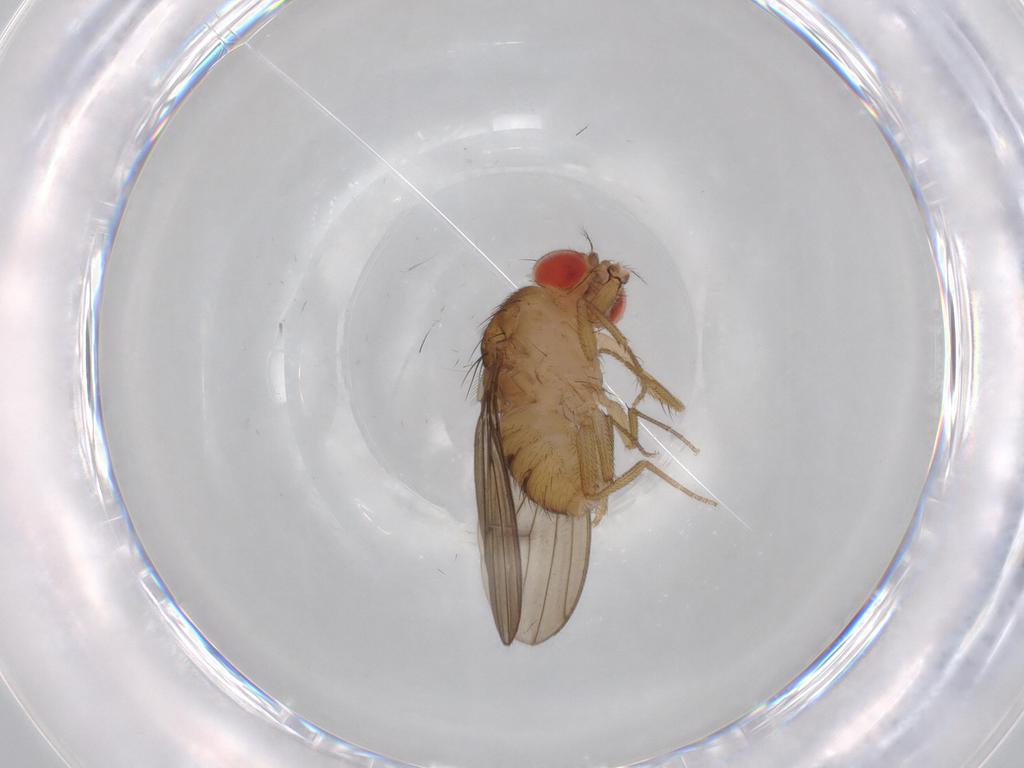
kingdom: Animalia
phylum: Arthropoda
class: Insecta
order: Diptera
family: Drosophilidae
